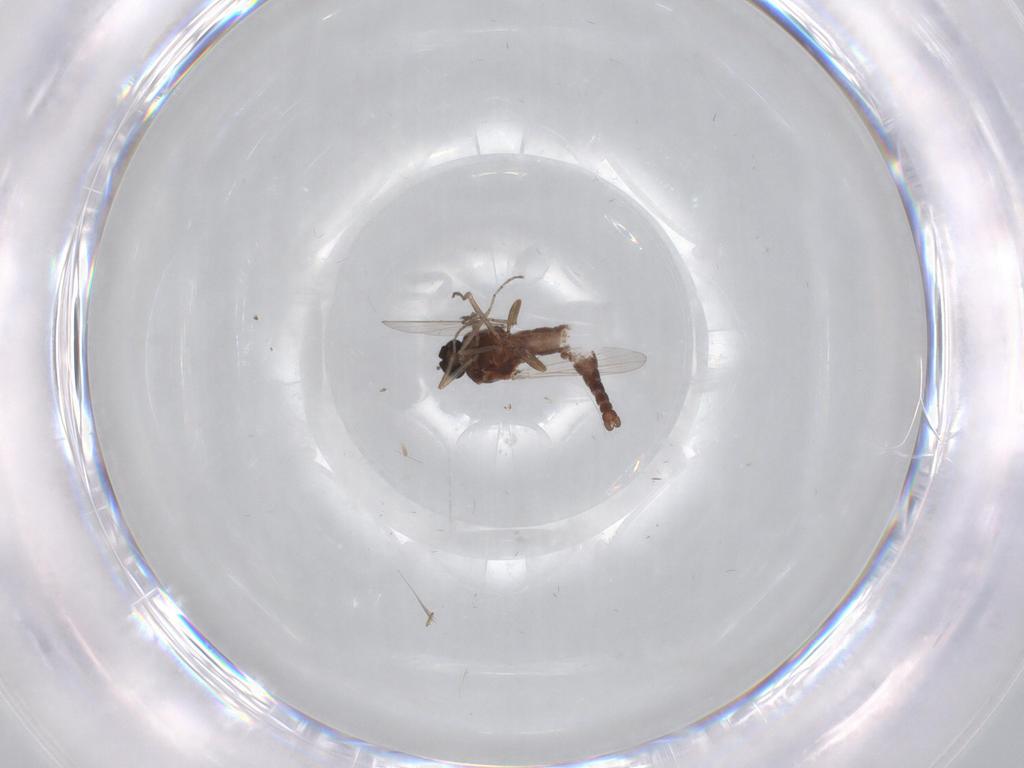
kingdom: Animalia
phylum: Arthropoda
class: Insecta
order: Diptera
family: Ceratopogonidae
